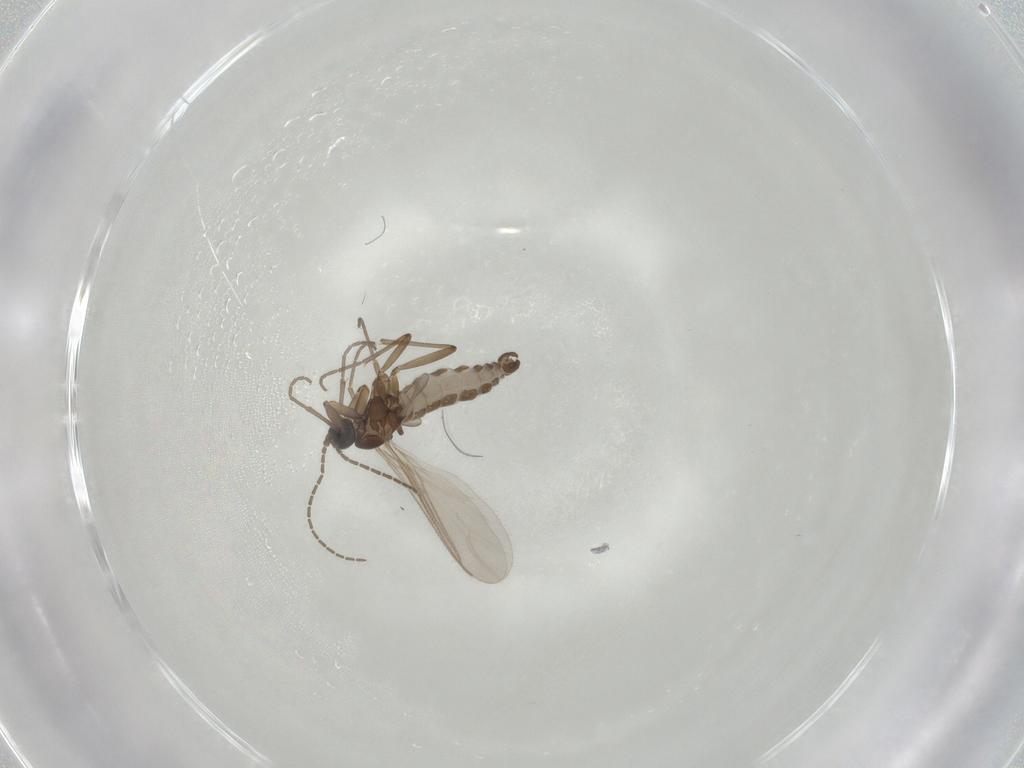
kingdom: Animalia
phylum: Arthropoda
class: Insecta
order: Diptera
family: Sciaridae
